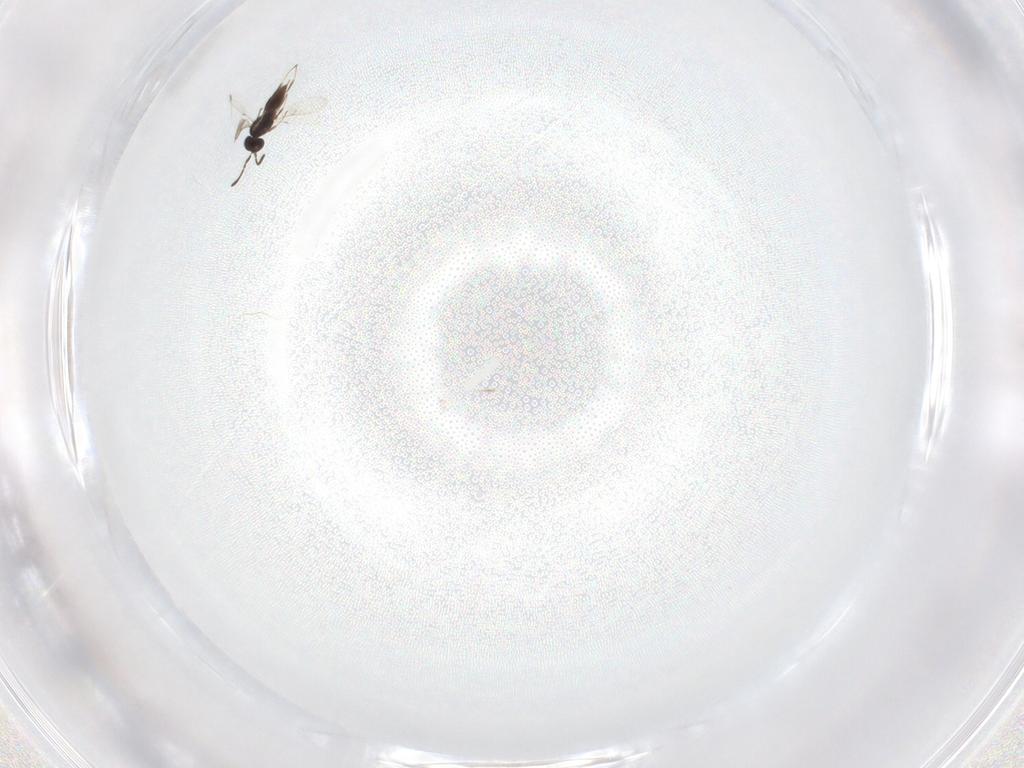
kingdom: Animalia
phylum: Arthropoda
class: Insecta
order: Hymenoptera
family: Scelionidae
